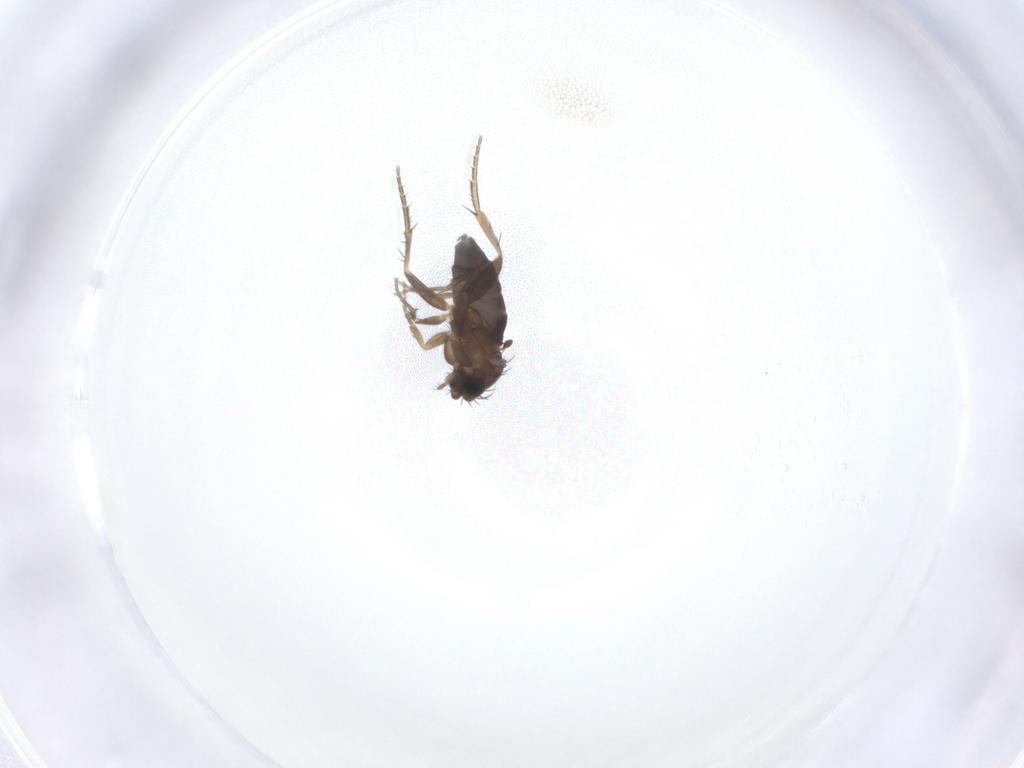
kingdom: Animalia
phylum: Arthropoda
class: Insecta
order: Diptera
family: Phoridae
